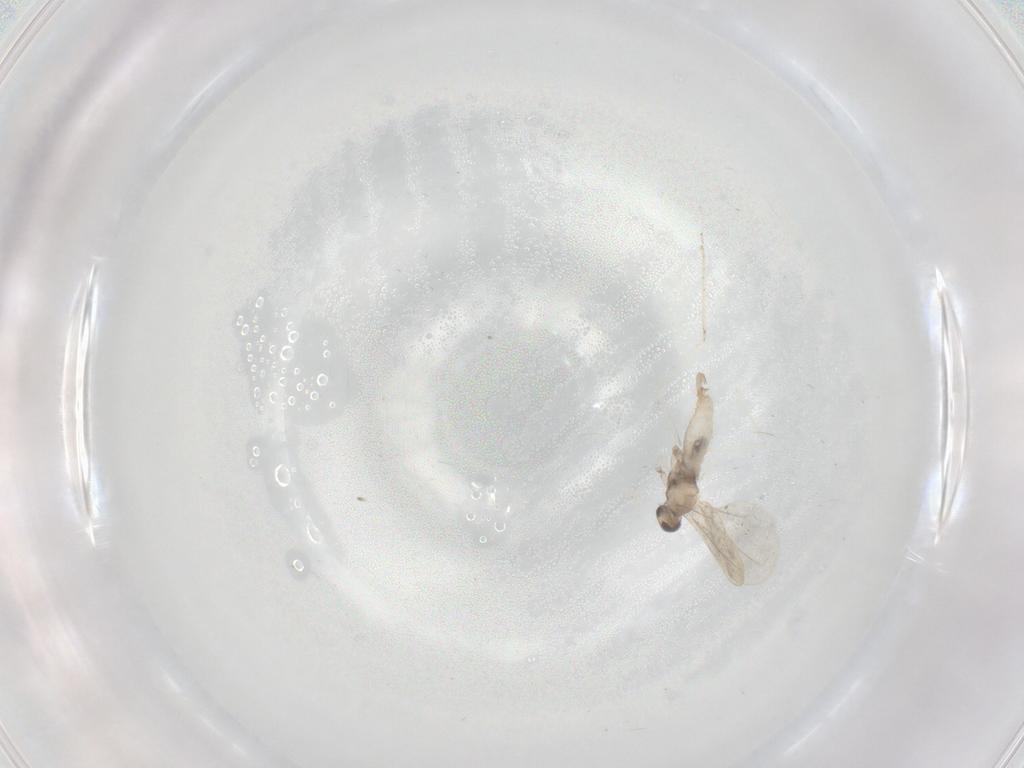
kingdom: Animalia
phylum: Arthropoda
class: Insecta
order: Diptera
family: Cecidomyiidae
